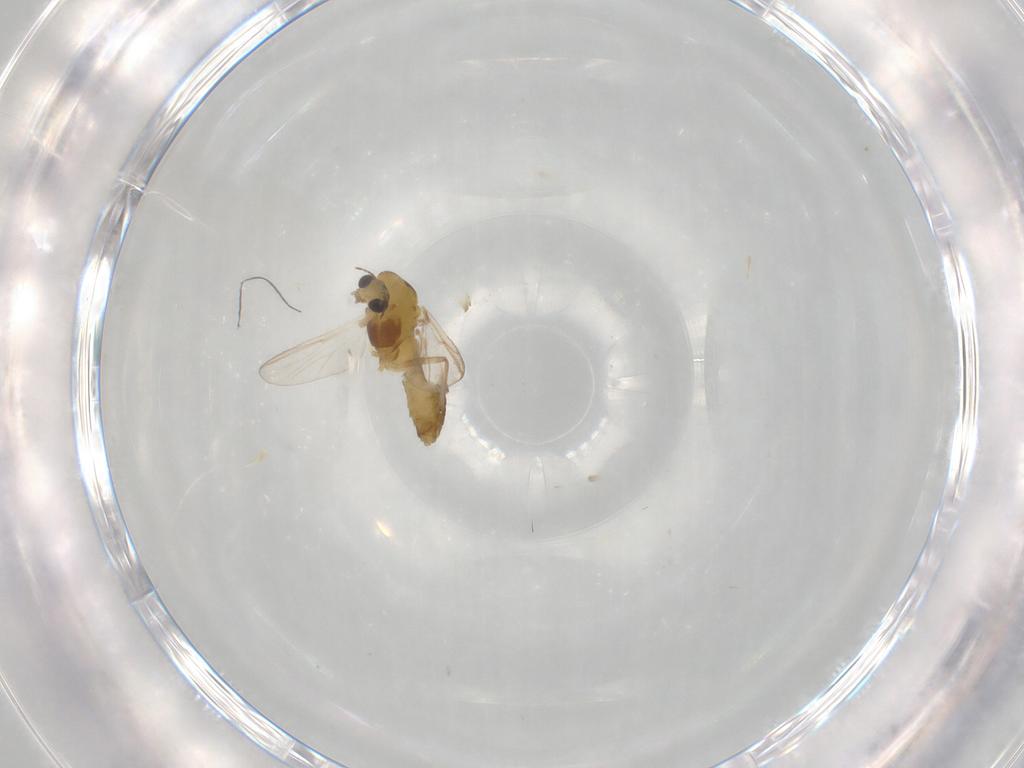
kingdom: Animalia
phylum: Arthropoda
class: Insecta
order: Diptera
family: Chironomidae
